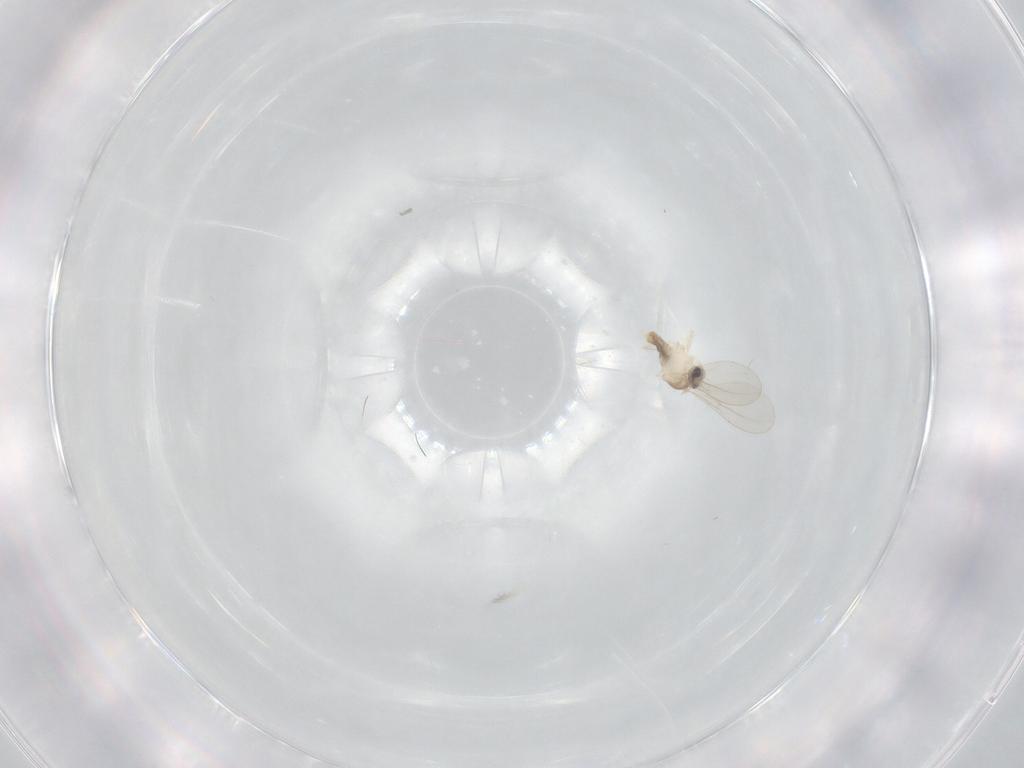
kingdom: Animalia
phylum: Arthropoda
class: Insecta
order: Diptera
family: Cecidomyiidae
